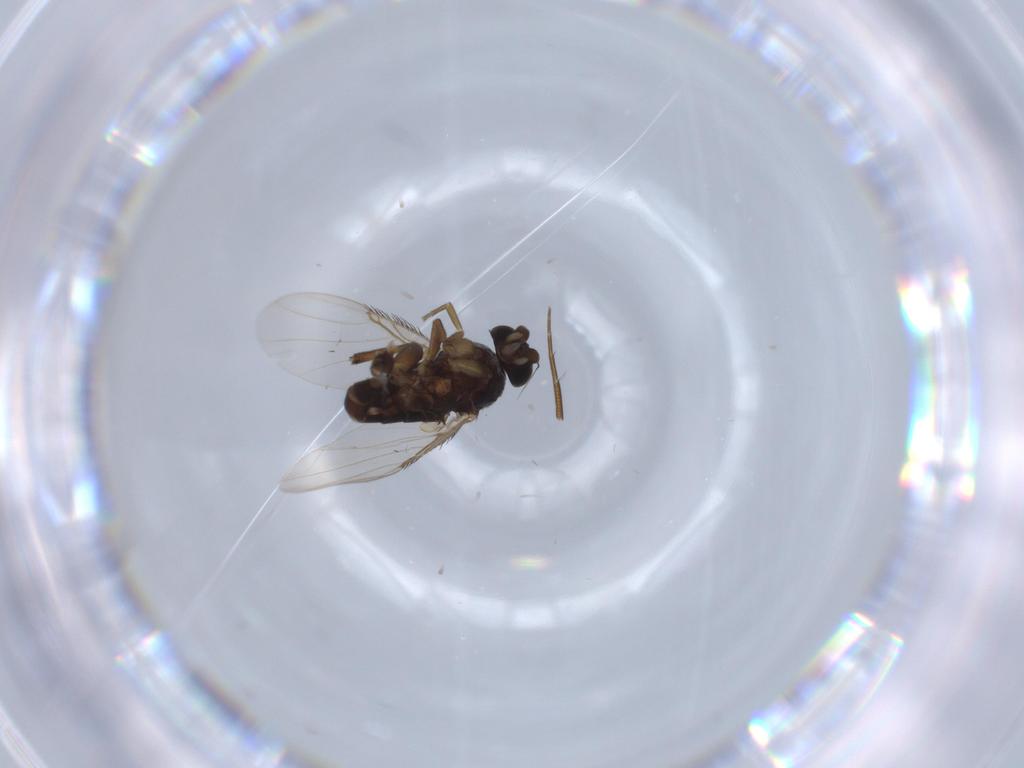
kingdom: Animalia
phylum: Arthropoda
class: Insecta
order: Diptera
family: Phoridae
